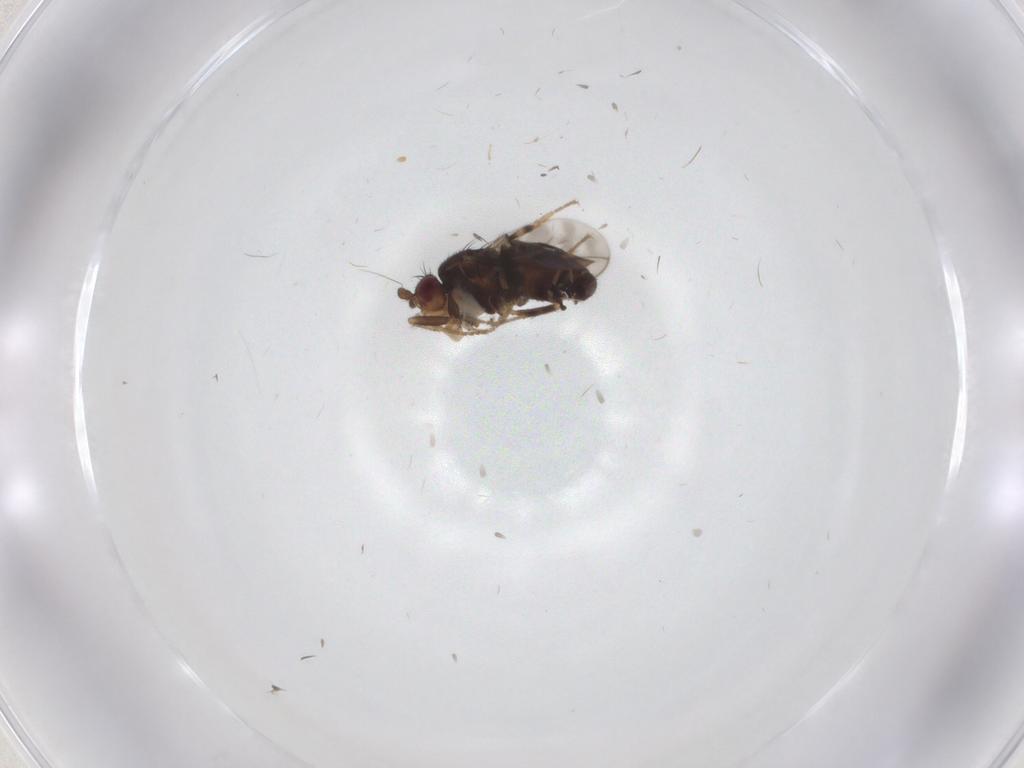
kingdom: Animalia
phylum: Arthropoda
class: Insecta
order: Diptera
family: Sphaeroceridae
